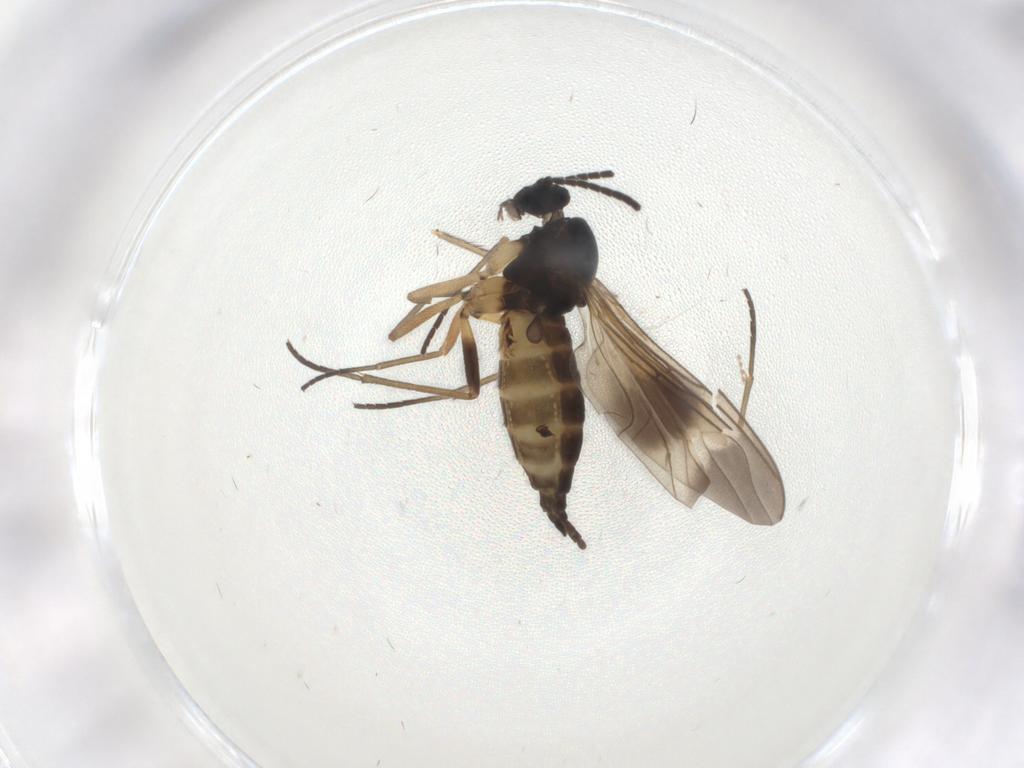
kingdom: Animalia
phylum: Arthropoda
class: Insecta
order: Diptera
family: Sciaridae
